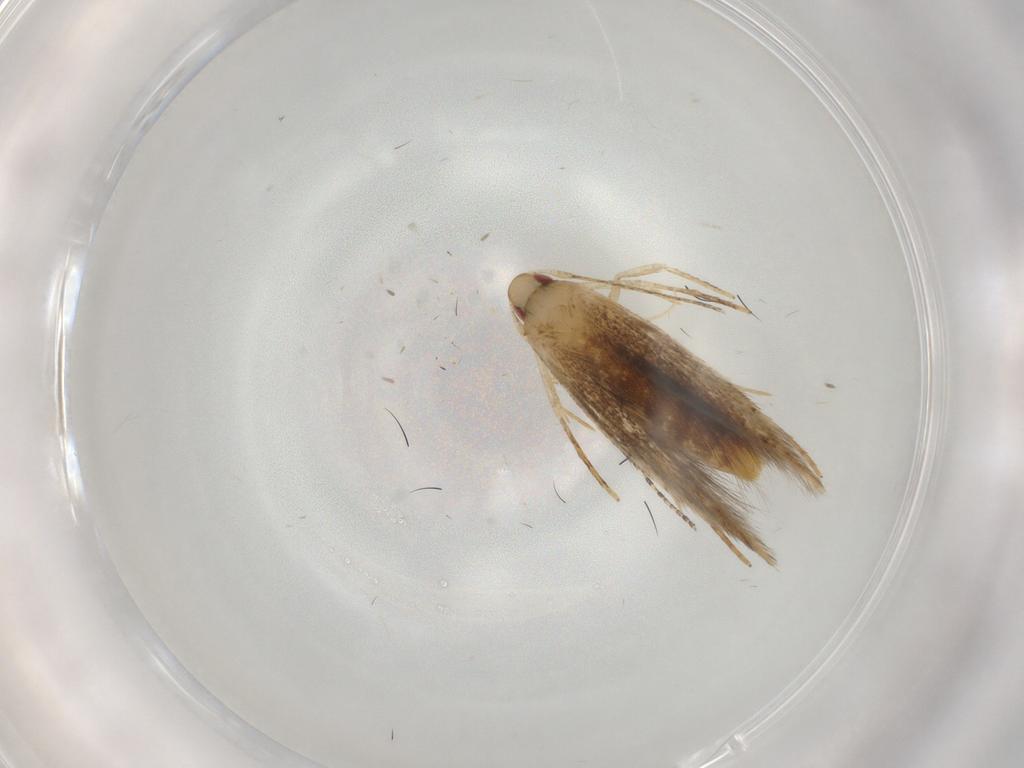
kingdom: Animalia
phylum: Arthropoda
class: Insecta
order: Lepidoptera
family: Gelechiidae
